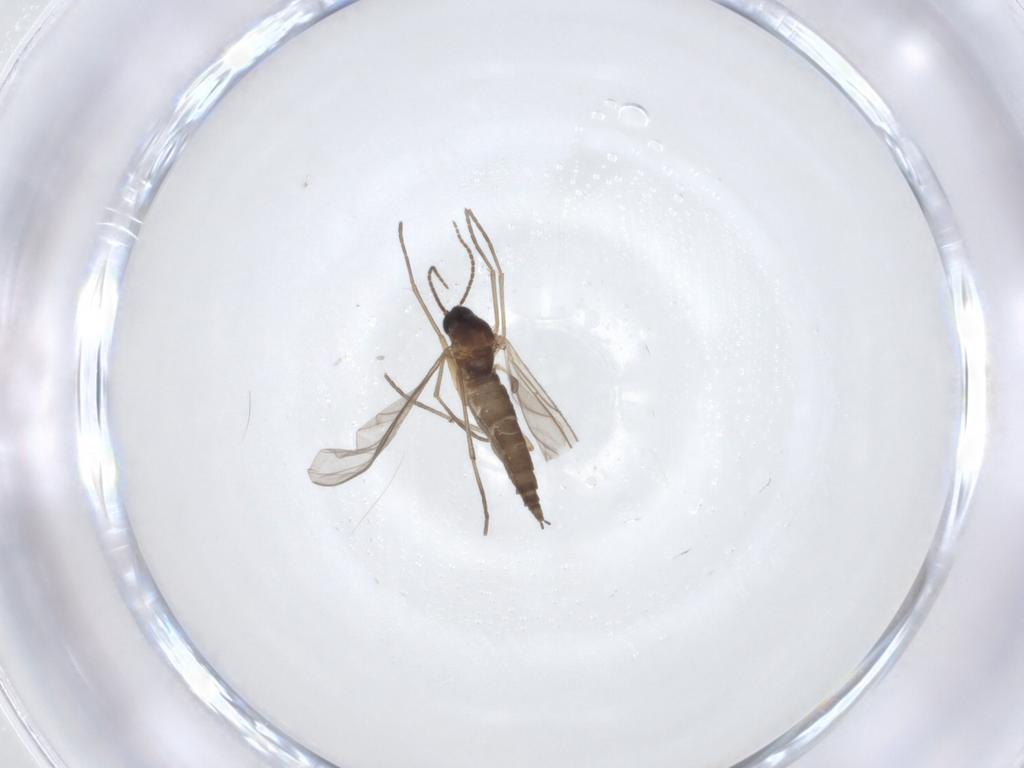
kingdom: Animalia
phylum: Arthropoda
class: Insecta
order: Diptera
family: Sciaridae
